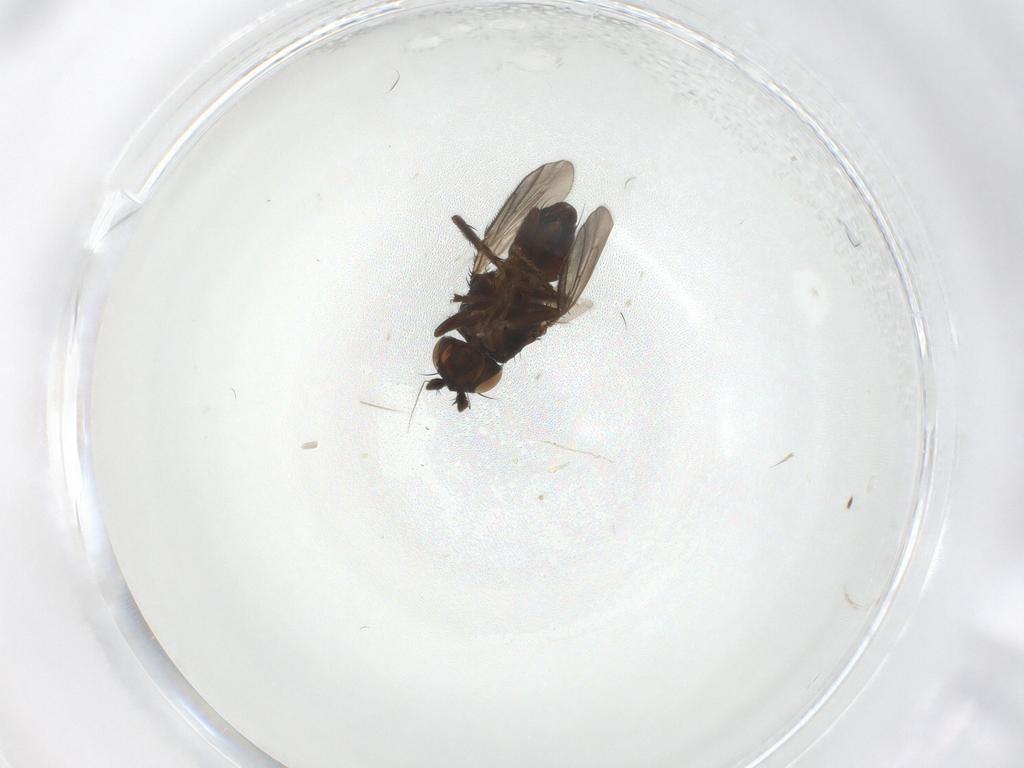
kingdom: Animalia
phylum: Arthropoda
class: Insecta
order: Diptera
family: Sphaeroceridae
